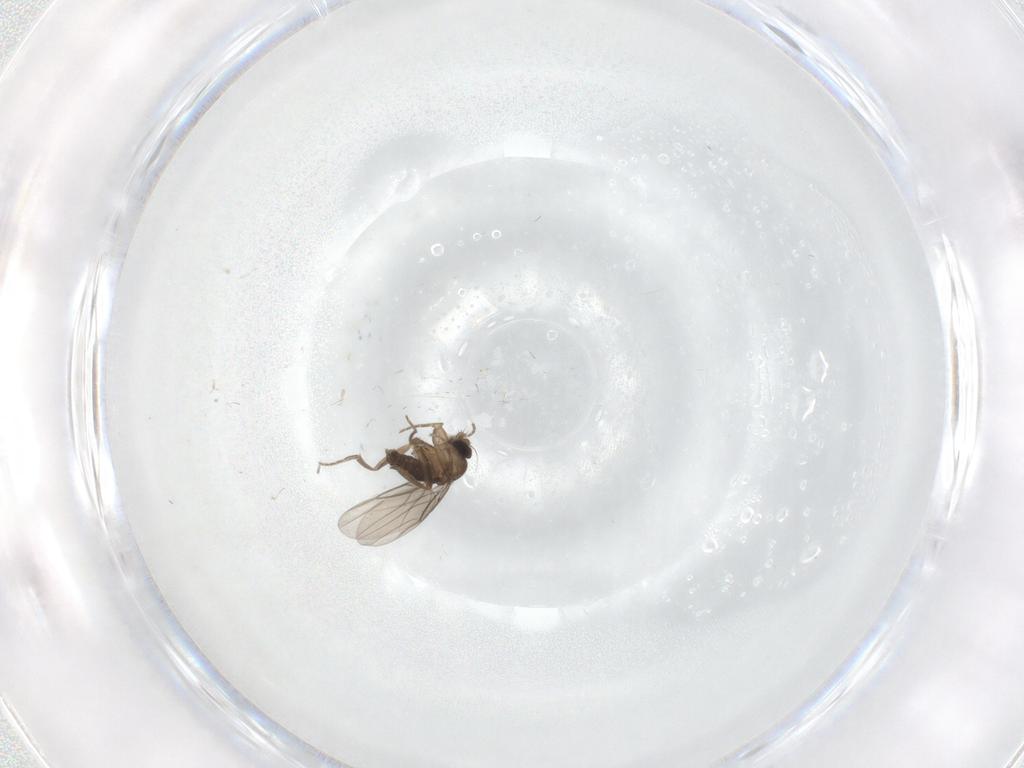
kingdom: Animalia
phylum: Arthropoda
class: Insecta
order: Diptera
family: Phoridae
